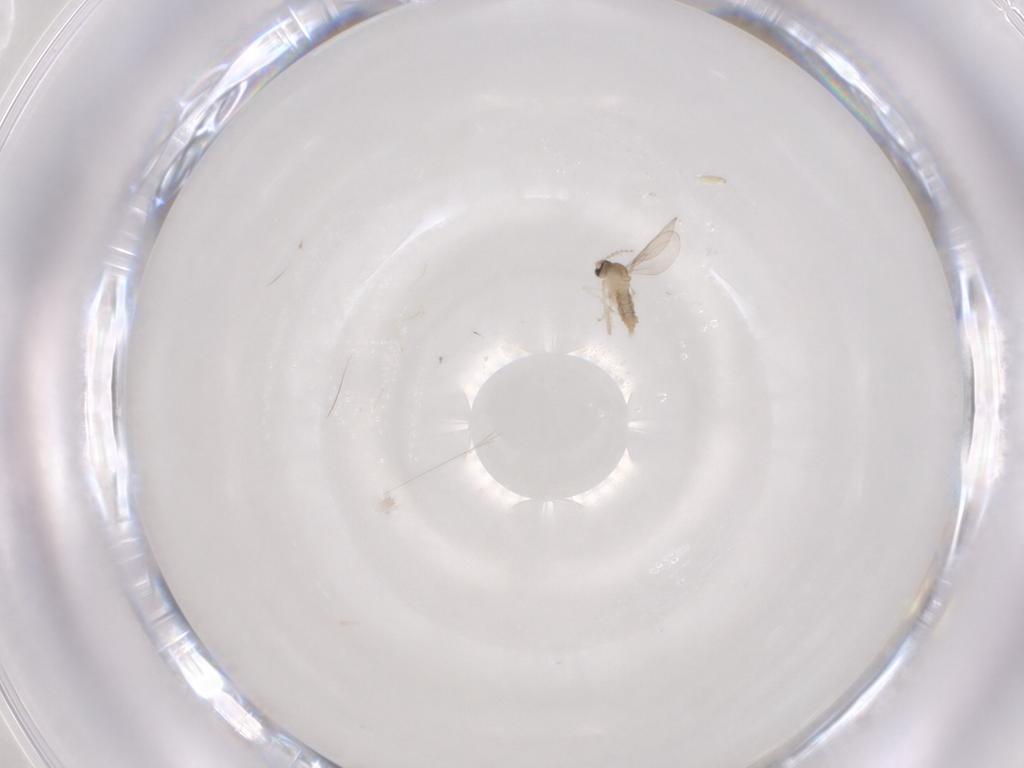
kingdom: Animalia
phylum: Arthropoda
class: Insecta
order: Diptera
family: Cecidomyiidae
